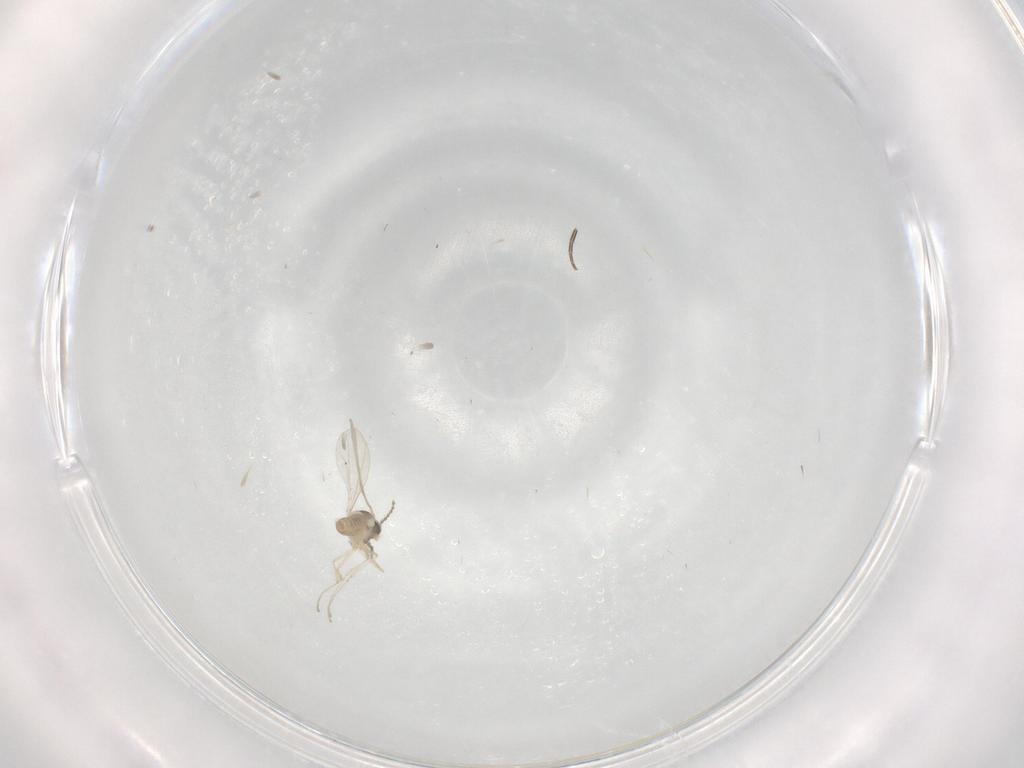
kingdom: Animalia
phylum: Arthropoda
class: Insecta
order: Diptera
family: Cecidomyiidae
